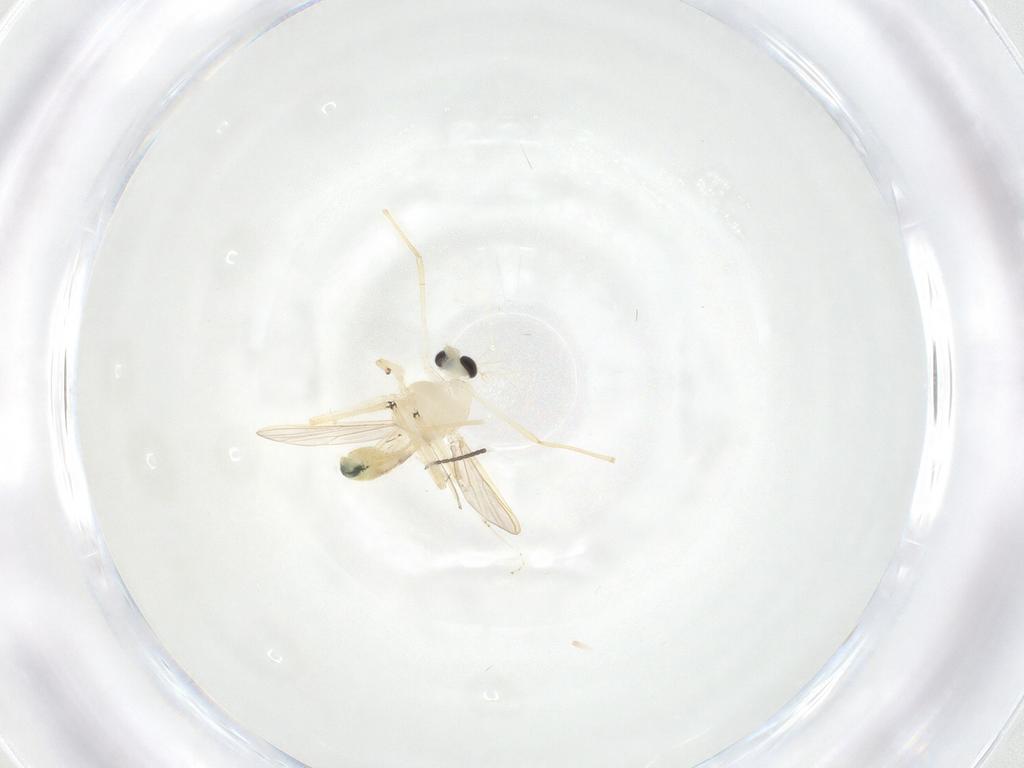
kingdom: Animalia
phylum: Arthropoda
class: Insecta
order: Diptera
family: Chironomidae
